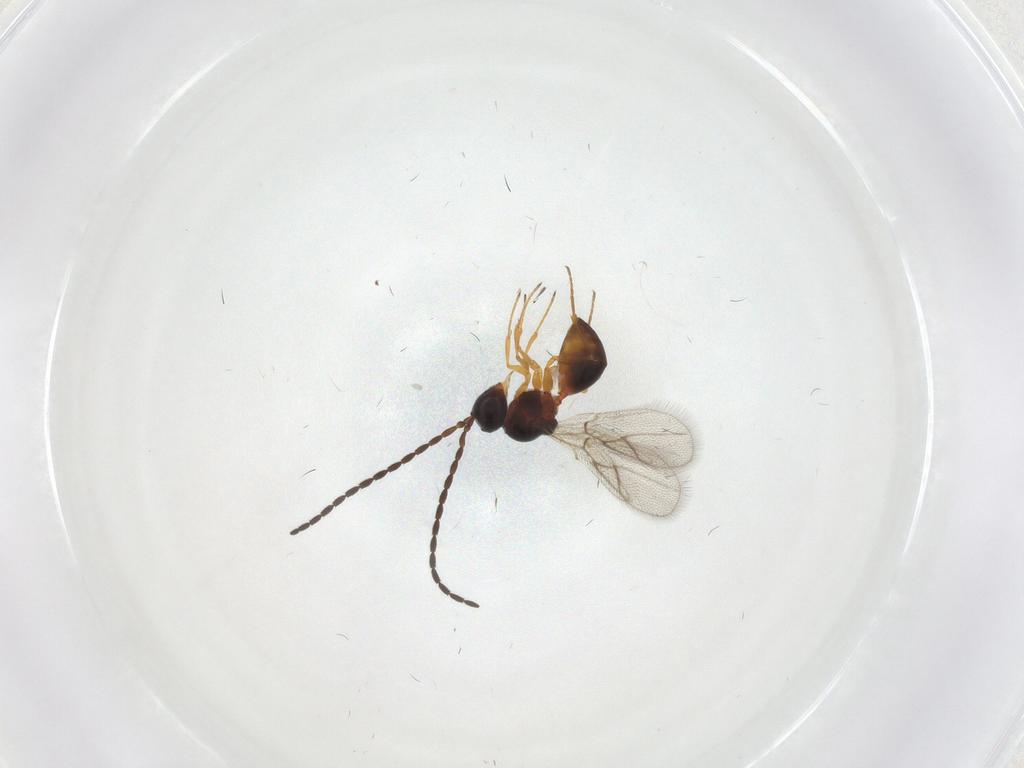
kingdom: Animalia
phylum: Arthropoda
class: Insecta
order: Hymenoptera
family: Figitidae
